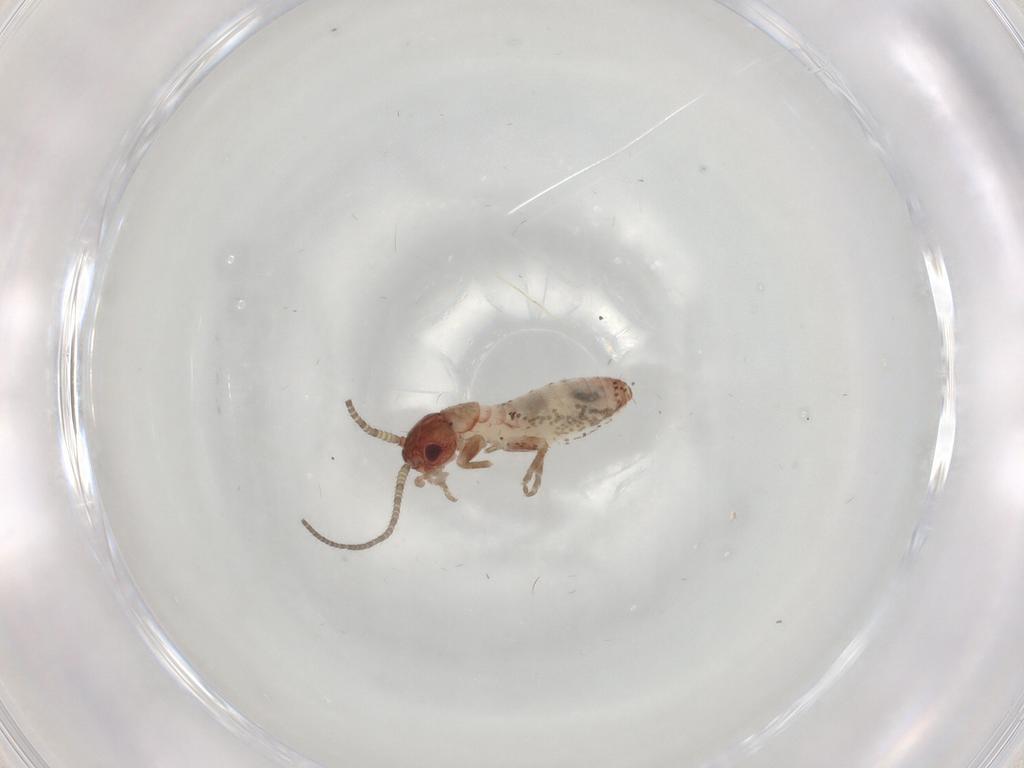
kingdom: Animalia
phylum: Arthropoda
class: Insecta
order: Orthoptera
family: Mogoplistidae
